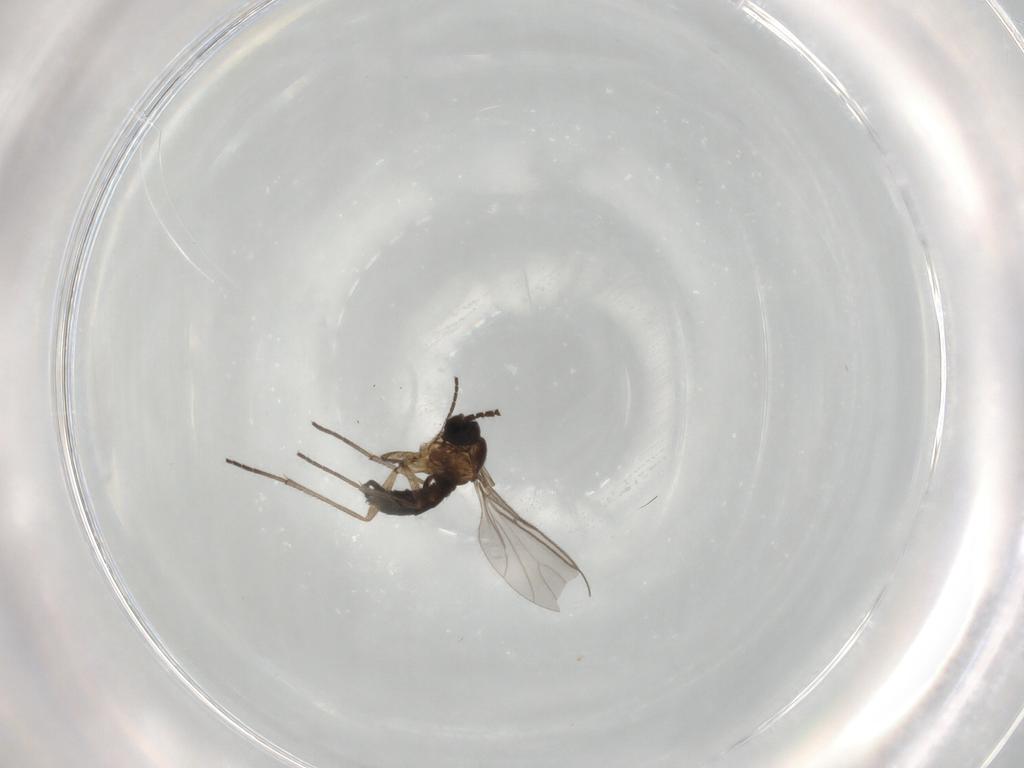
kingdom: Animalia
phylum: Arthropoda
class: Insecta
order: Diptera
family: Sciaridae
